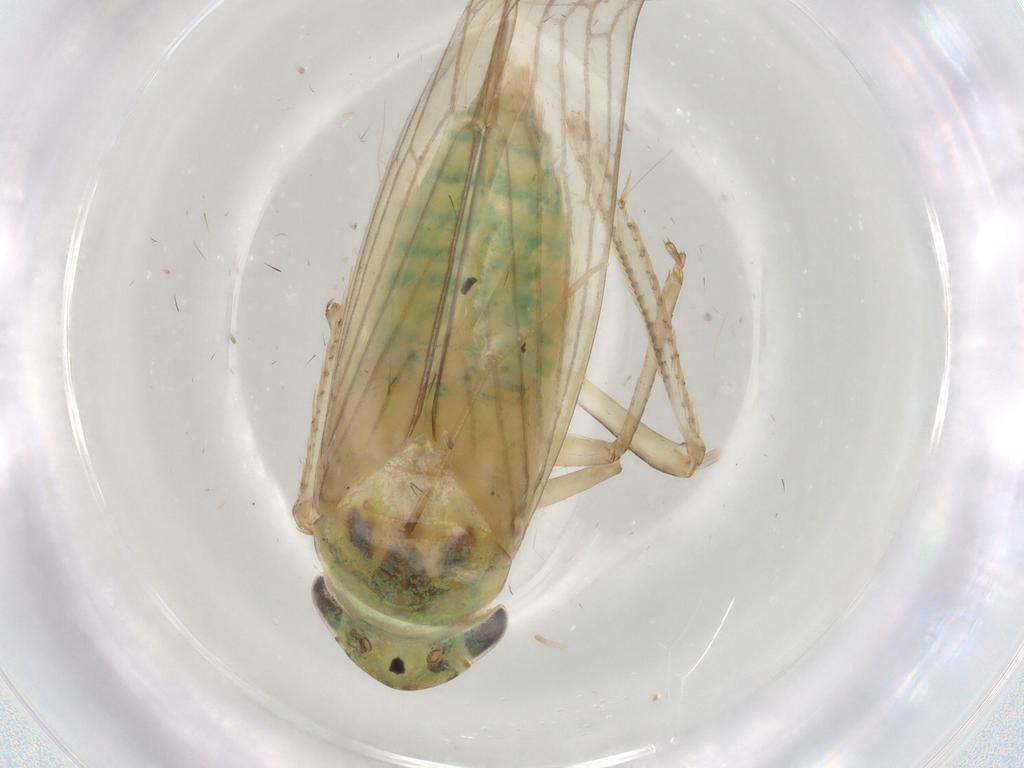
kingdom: Animalia
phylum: Arthropoda
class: Insecta
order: Hemiptera
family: Cicadellidae
